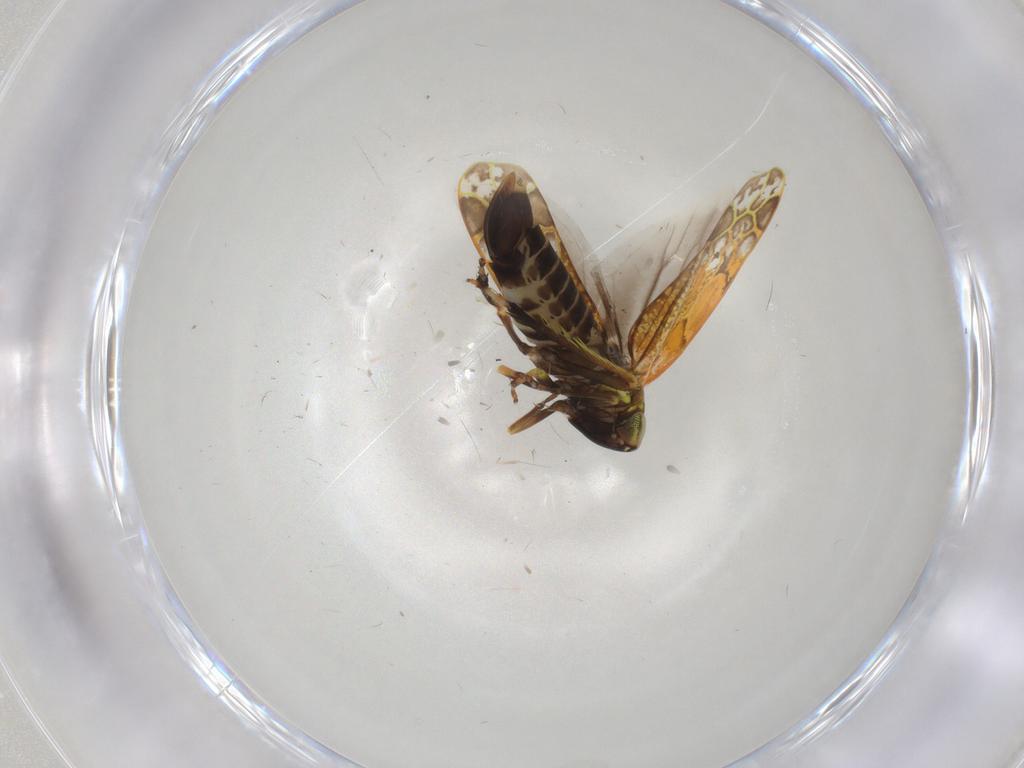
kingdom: Animalia
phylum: Arthropoda
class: Insecta
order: Hemiptera
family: Cicadellidae
